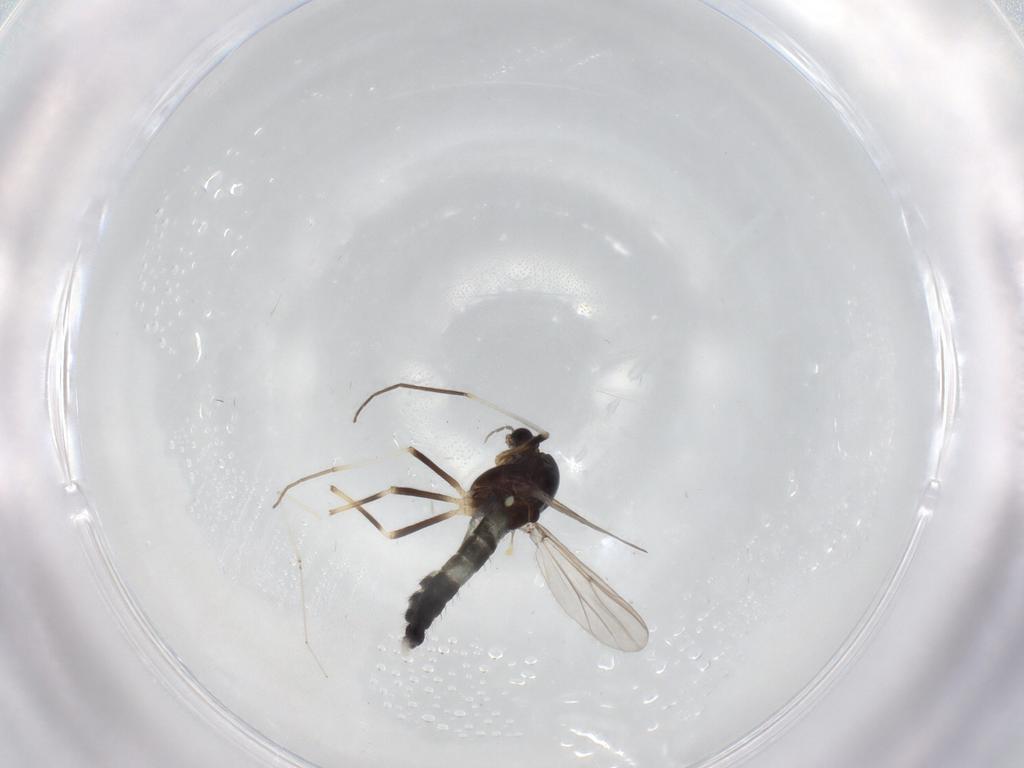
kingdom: Animalia
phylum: Arthropoda
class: Insecta
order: Diptera
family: Chironomidae
